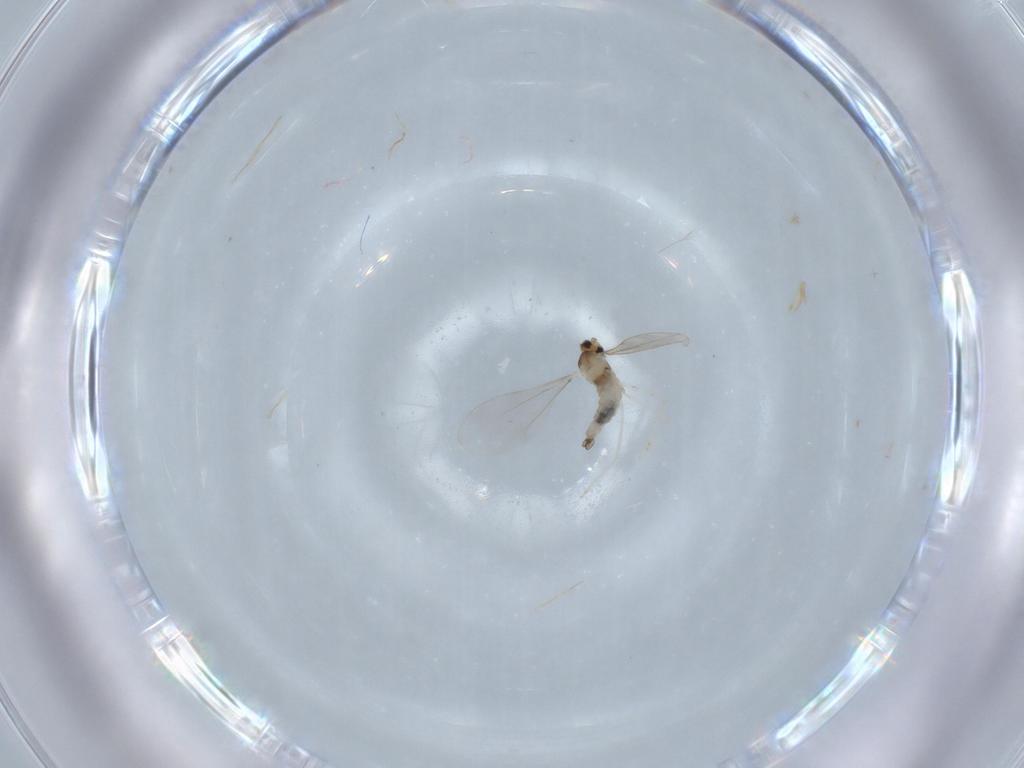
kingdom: Animalia
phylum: Arthropoda
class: Insecta
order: Diptera
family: Cecidomyiidae
